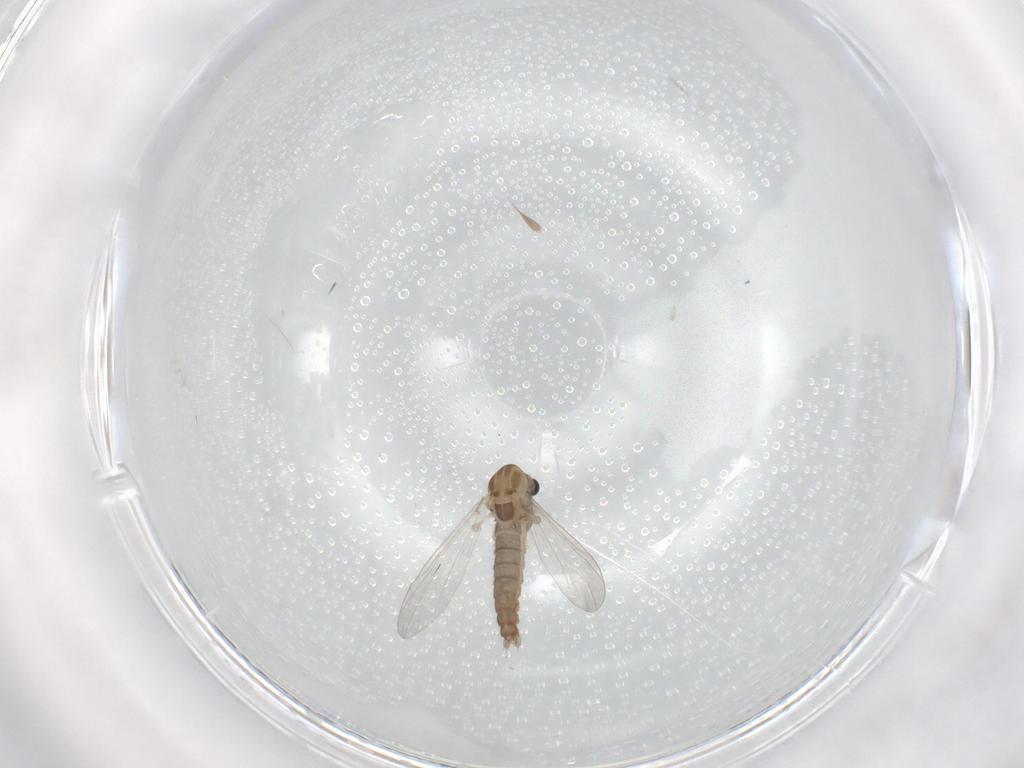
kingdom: Animalia
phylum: Arthropoda
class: Insecta
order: Diptera
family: Chironomidae
